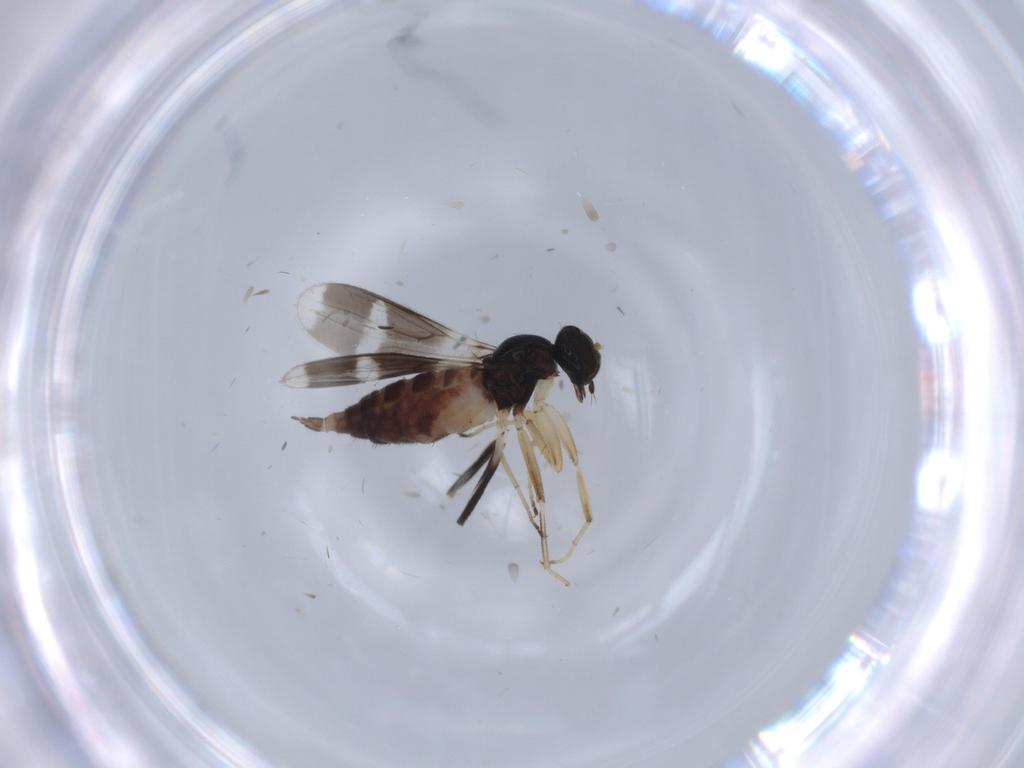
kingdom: Animalia
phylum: Arthropoda
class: Insecta
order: Diptera
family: Hybotidae
